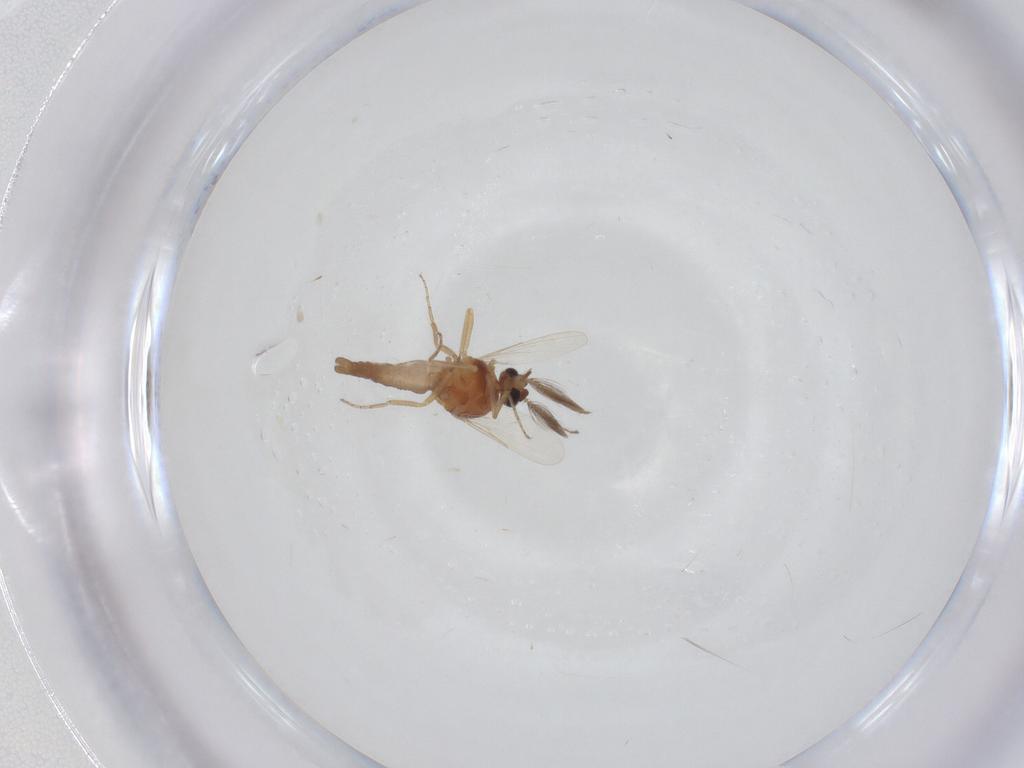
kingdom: Animalia
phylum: Arthropoda
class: Insecta
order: Diptera
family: Ceratopogonidae
